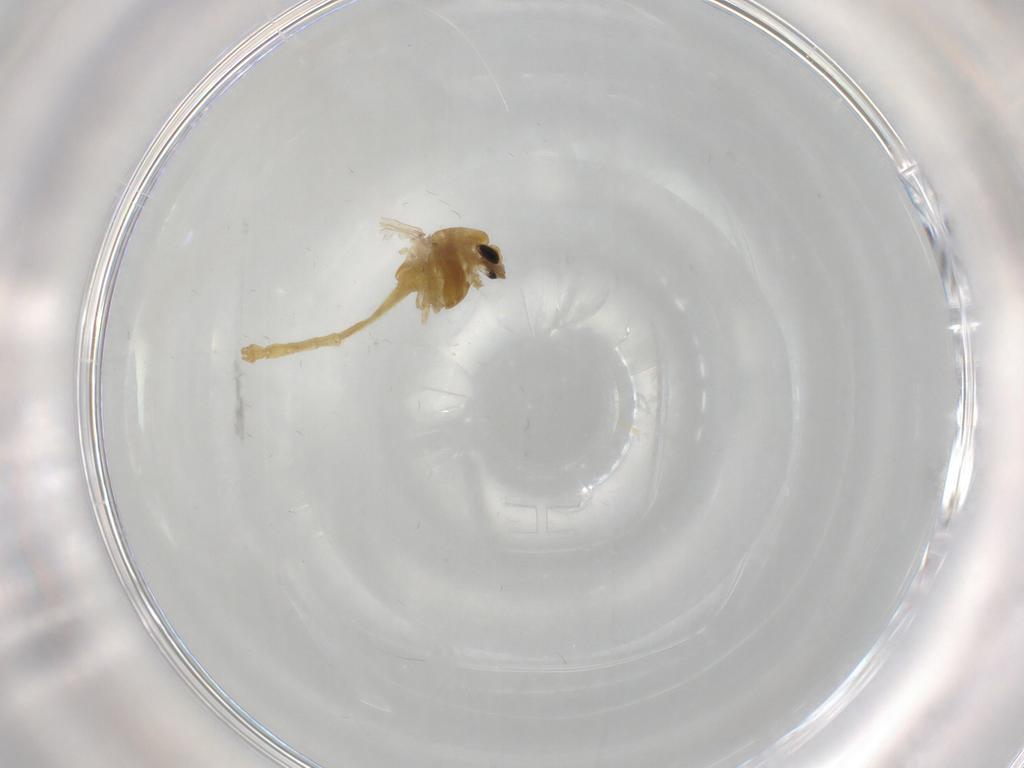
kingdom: Animalia
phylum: Arthropoda
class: Insecta
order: Diptera
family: Chironomidae
